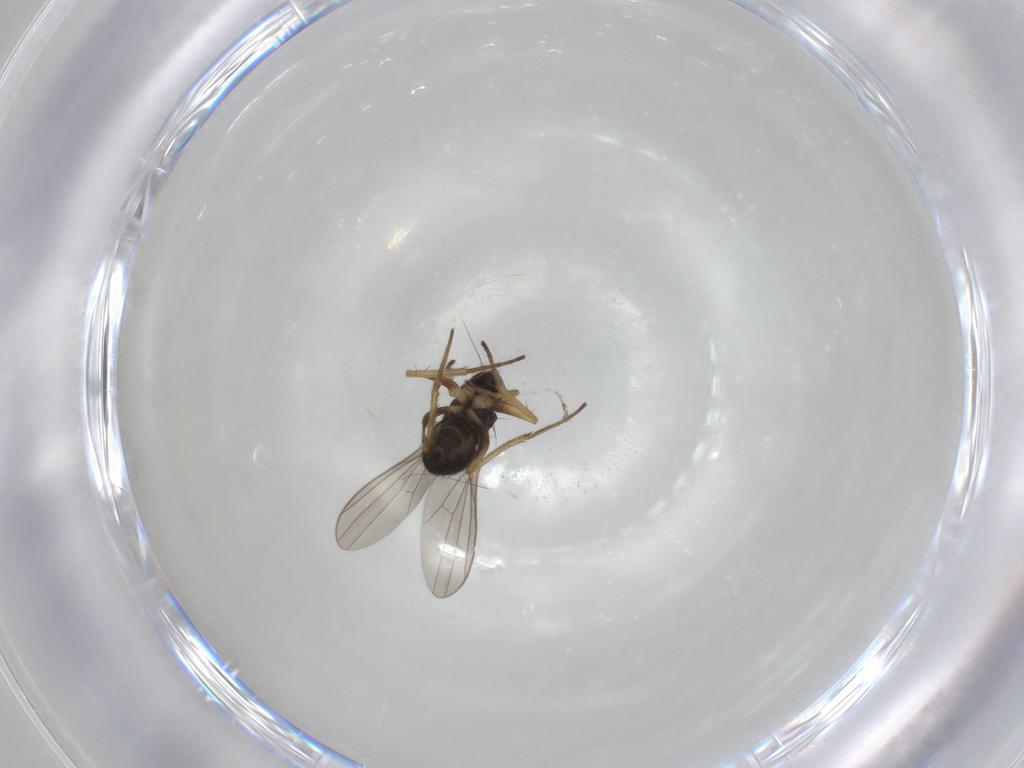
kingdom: Animalia
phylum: Arthropoda
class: Insecta
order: Diptera
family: Dolichopodidae
